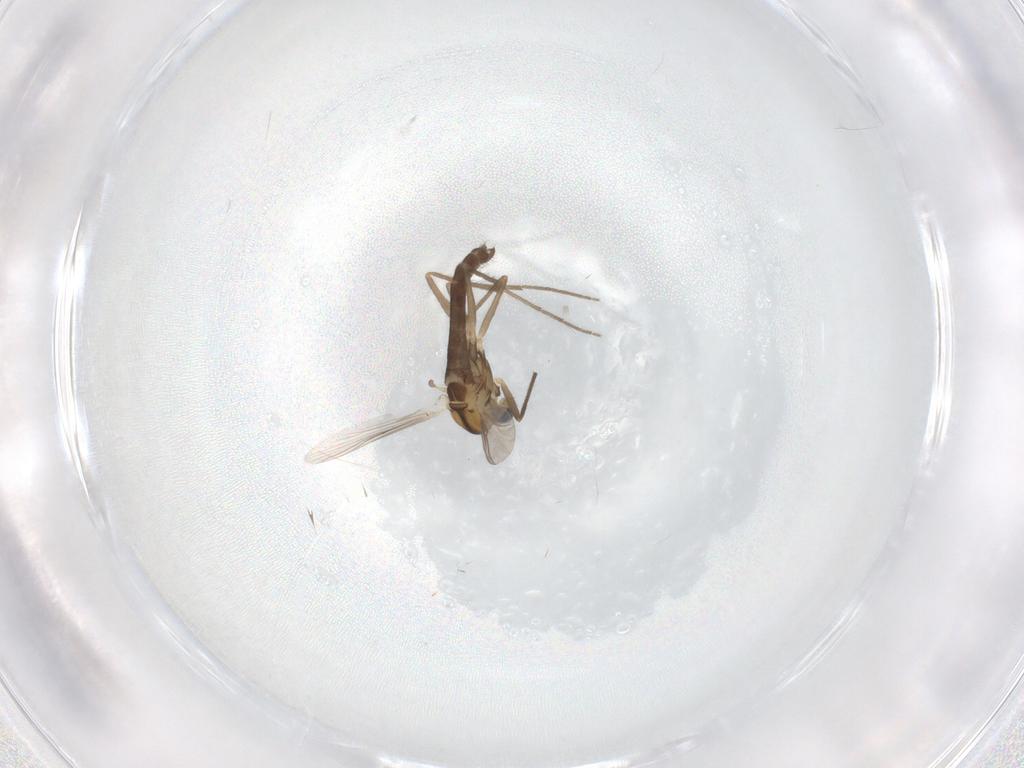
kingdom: Animalia
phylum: Arthropoda
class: Insecta
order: Diptera
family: Chironomidae
